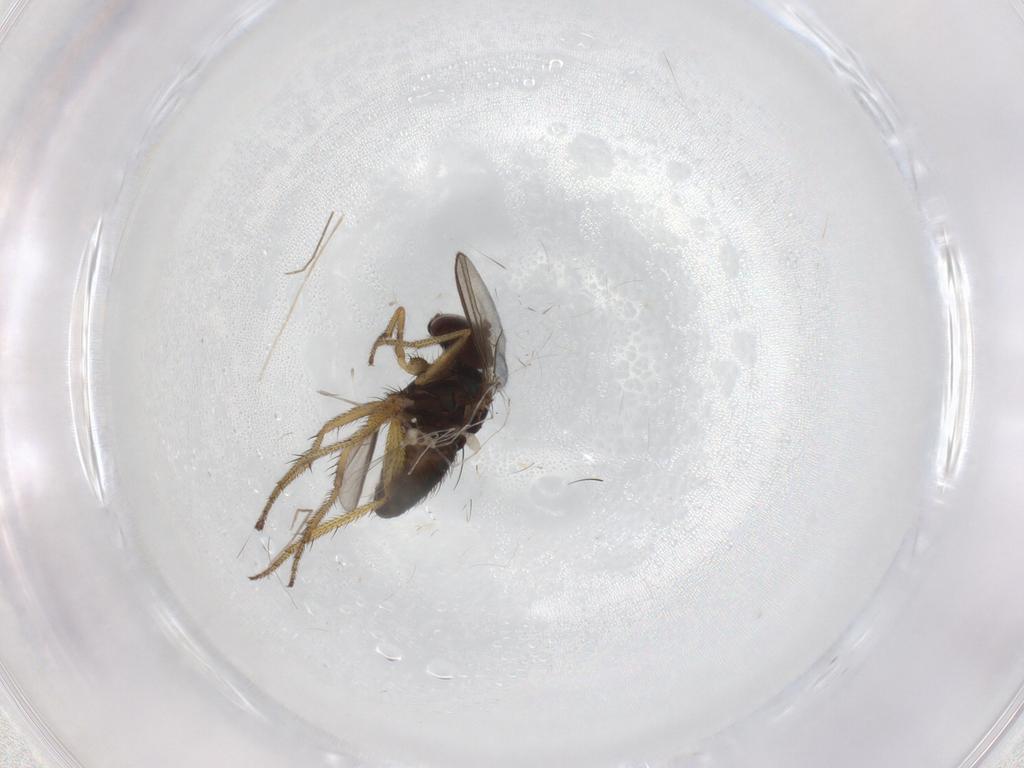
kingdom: Animalia
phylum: Arthropoda
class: Insecta
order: Diptera
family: Dolichopodidae
